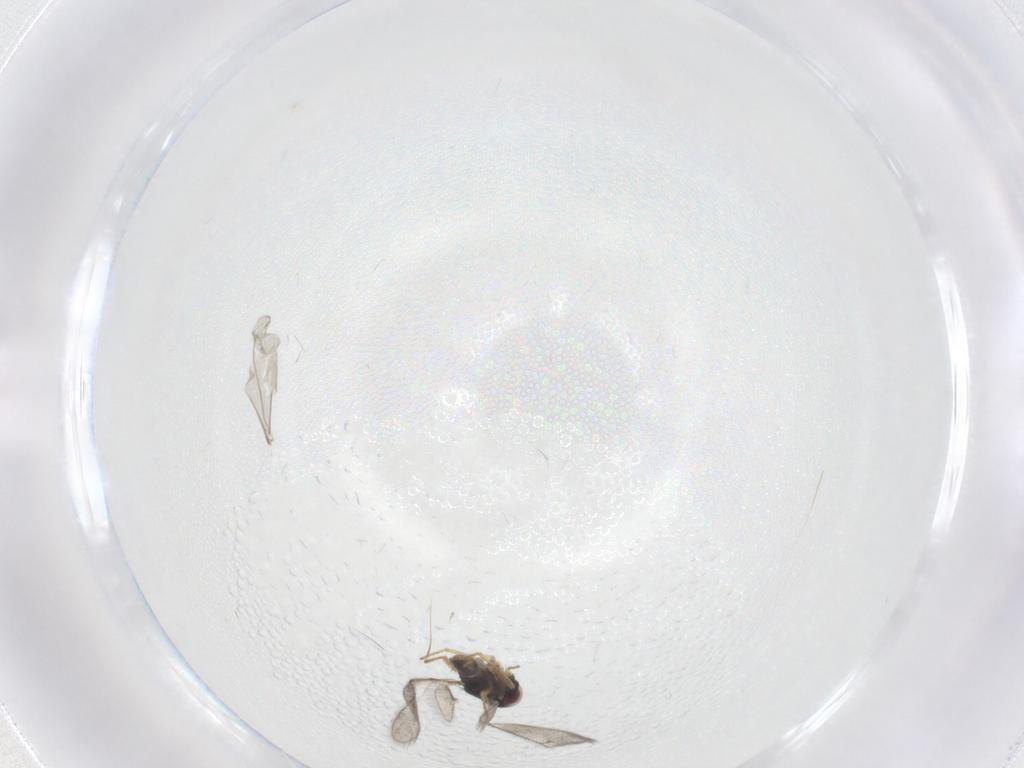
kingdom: Animalia
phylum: Arthropoda
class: Insecta
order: Hymenoptera
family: Eulophidae
